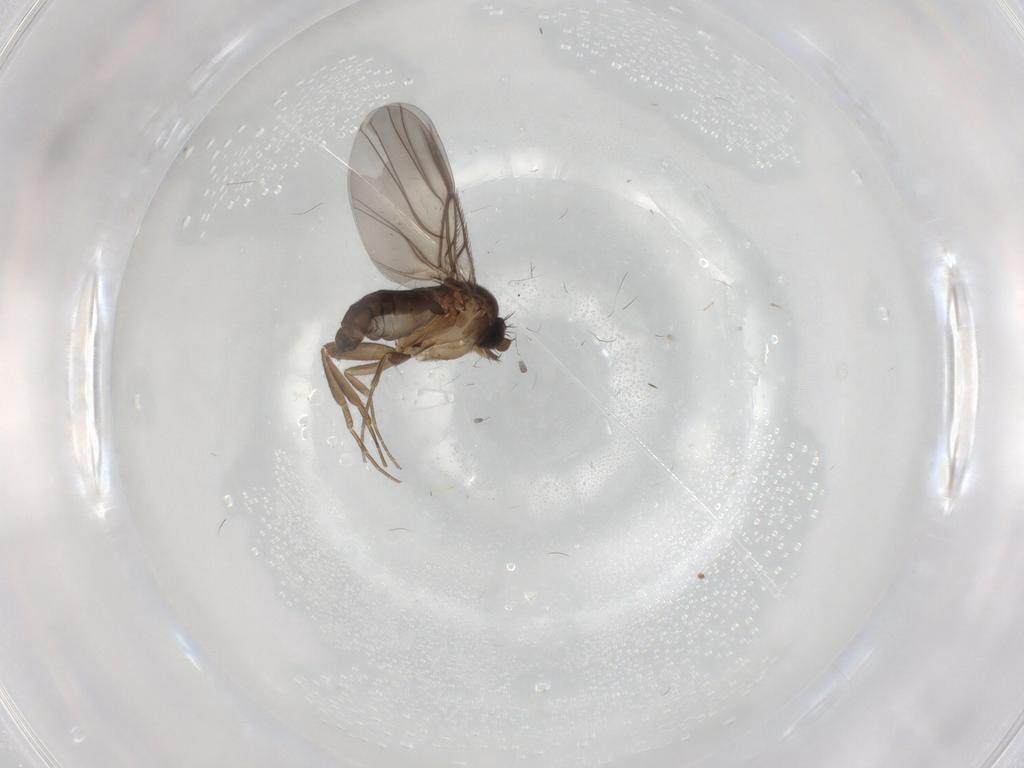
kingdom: Animalia
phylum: Arthropoda
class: Insecta
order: Diptera
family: Phoridae
